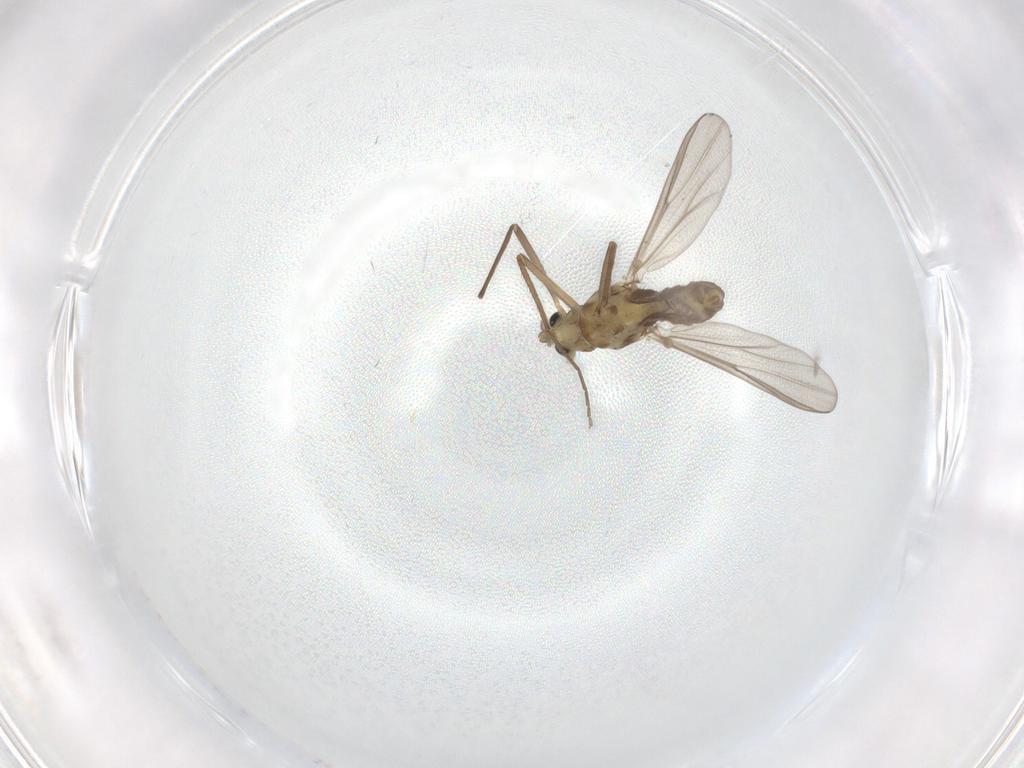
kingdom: Animalia
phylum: Arthropoda
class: Insecta
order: Diptera
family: Chironomidae
